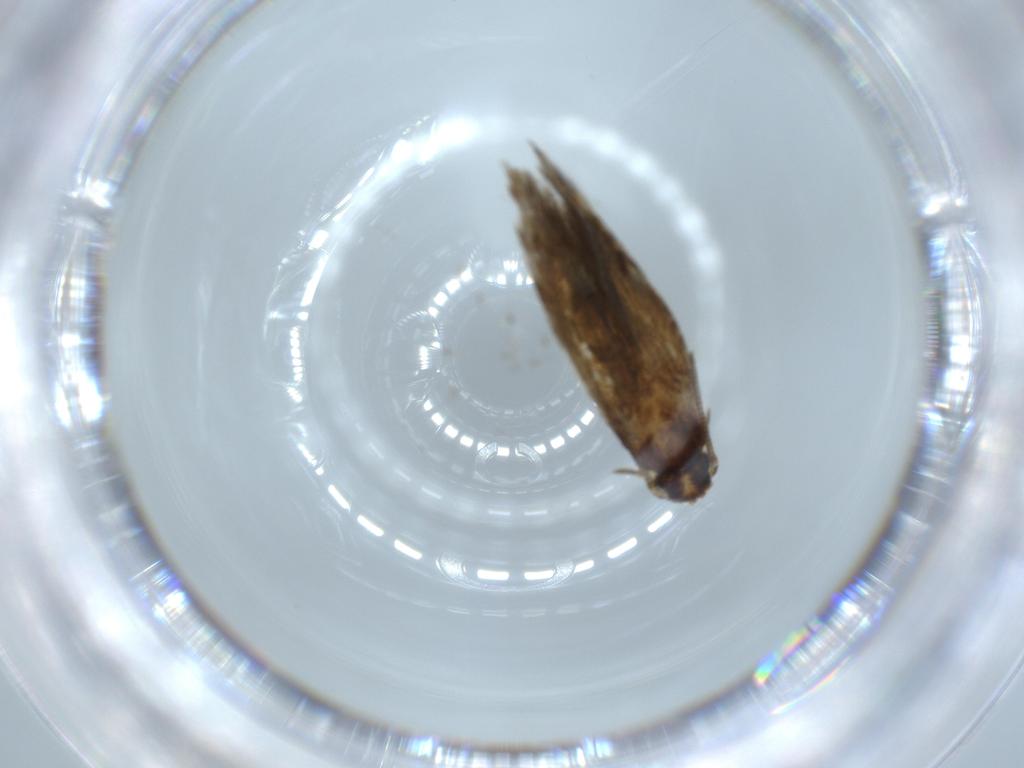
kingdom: Animalia
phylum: Arthropoda
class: Insecta
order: Lepidoptera
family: Tineidae
